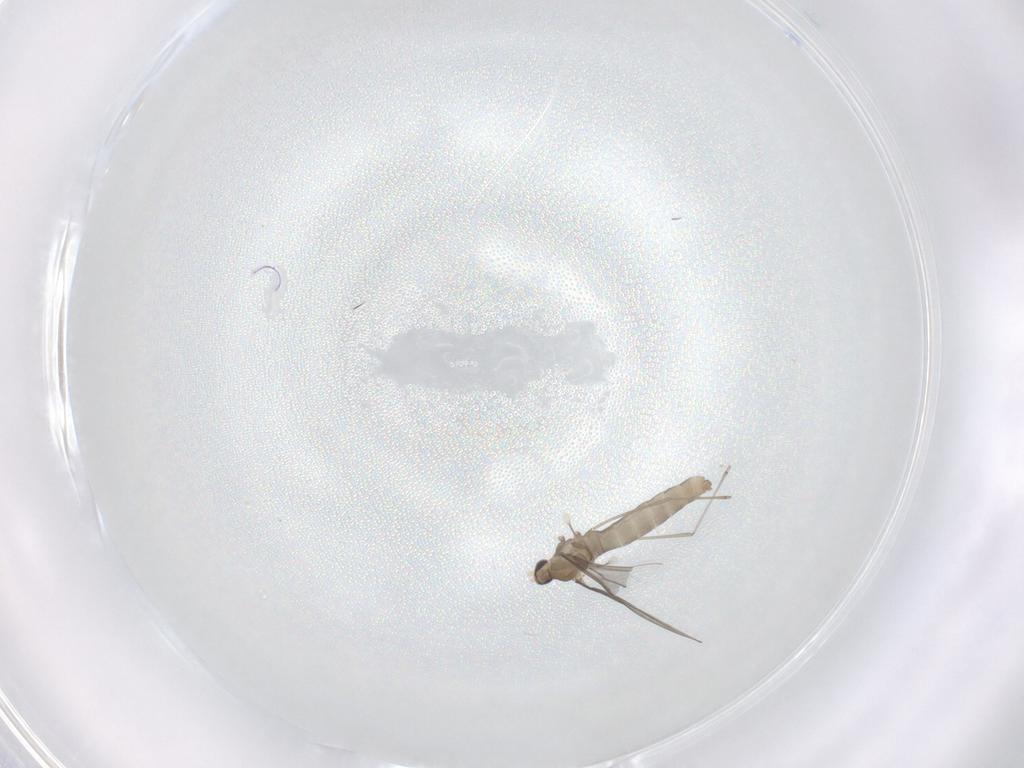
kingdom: Animalia
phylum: Arthropoda
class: Insecta
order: Diptera
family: Cecidomyiidae
